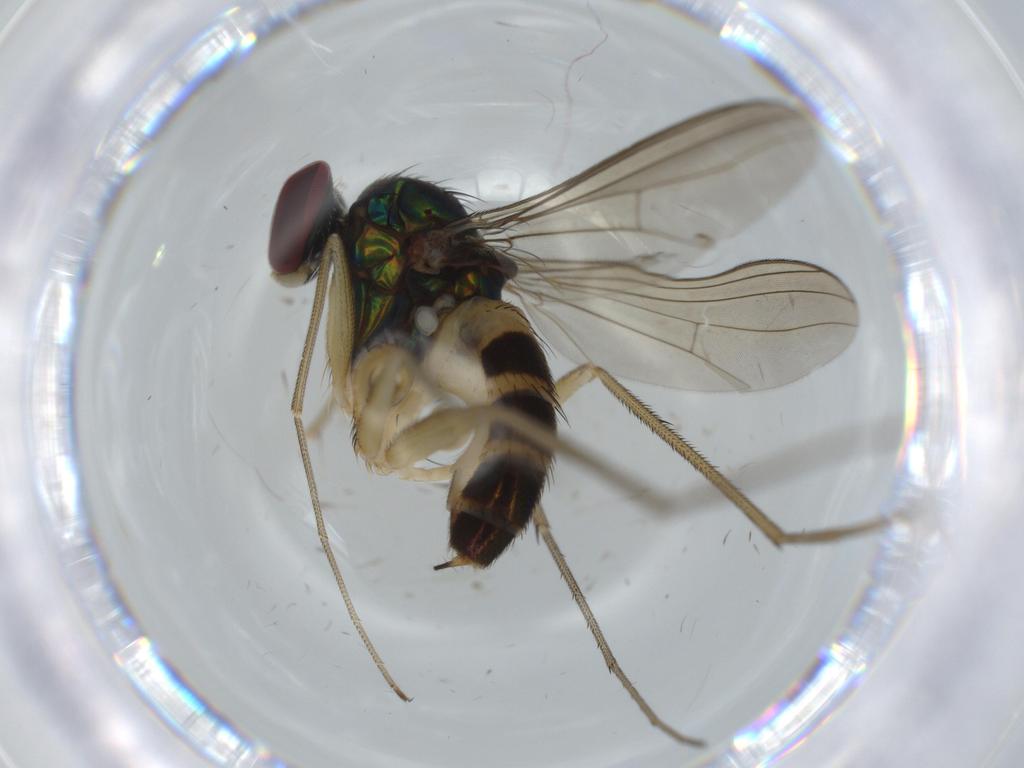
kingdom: Animalia
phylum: Arthropoda
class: Insecta
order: Diptera
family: Dolichopodidae
